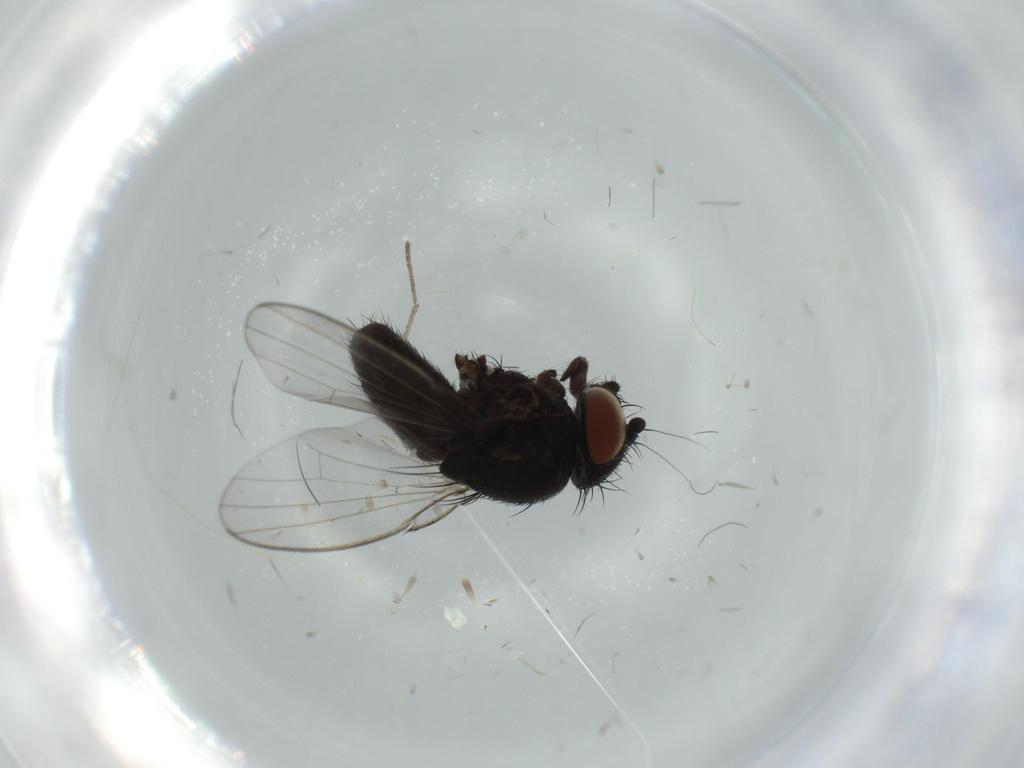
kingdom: Animalia
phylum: Arthropoda
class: Insecta
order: Diptera
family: Milichiidae
